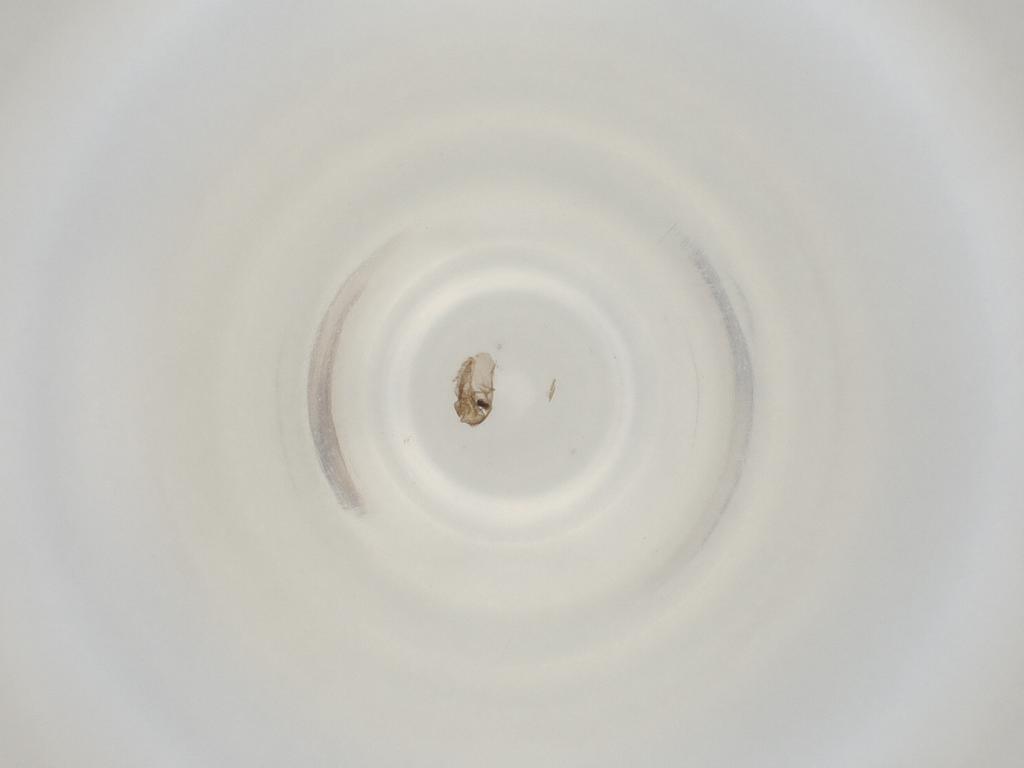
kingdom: Animalia
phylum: Arthropoda
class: Insecta
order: Diptera
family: Cecidomyiidae
